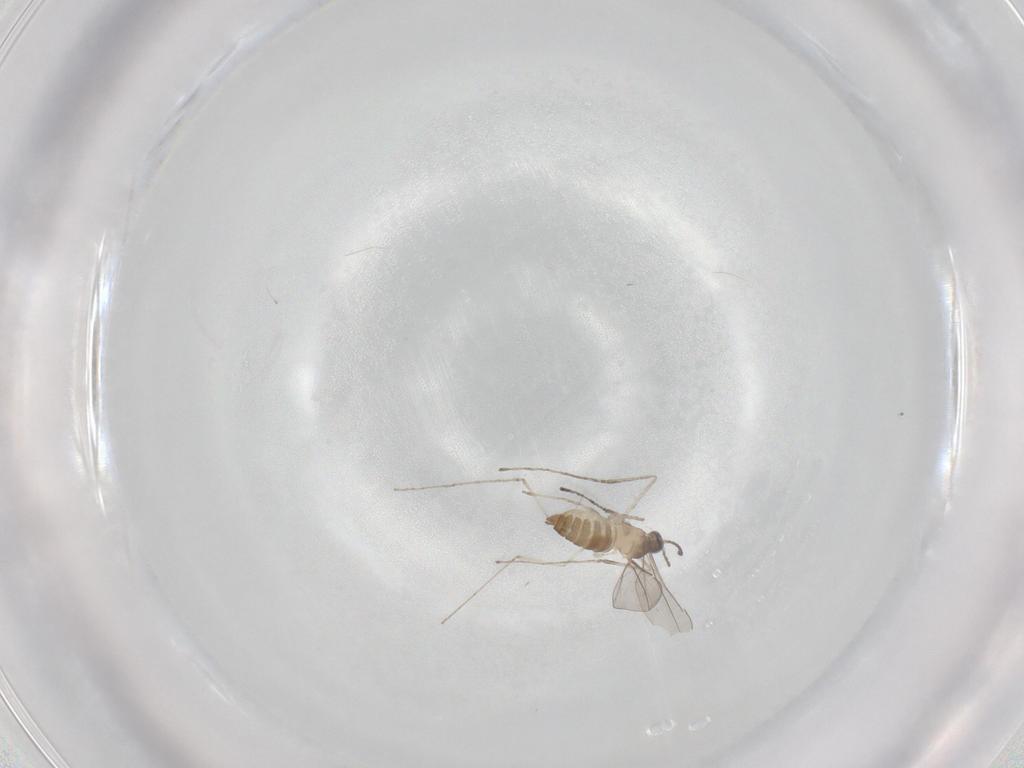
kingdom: Animalia
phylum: Arthropoda
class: Insecta
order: Diptera
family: Cecidomyiidae
